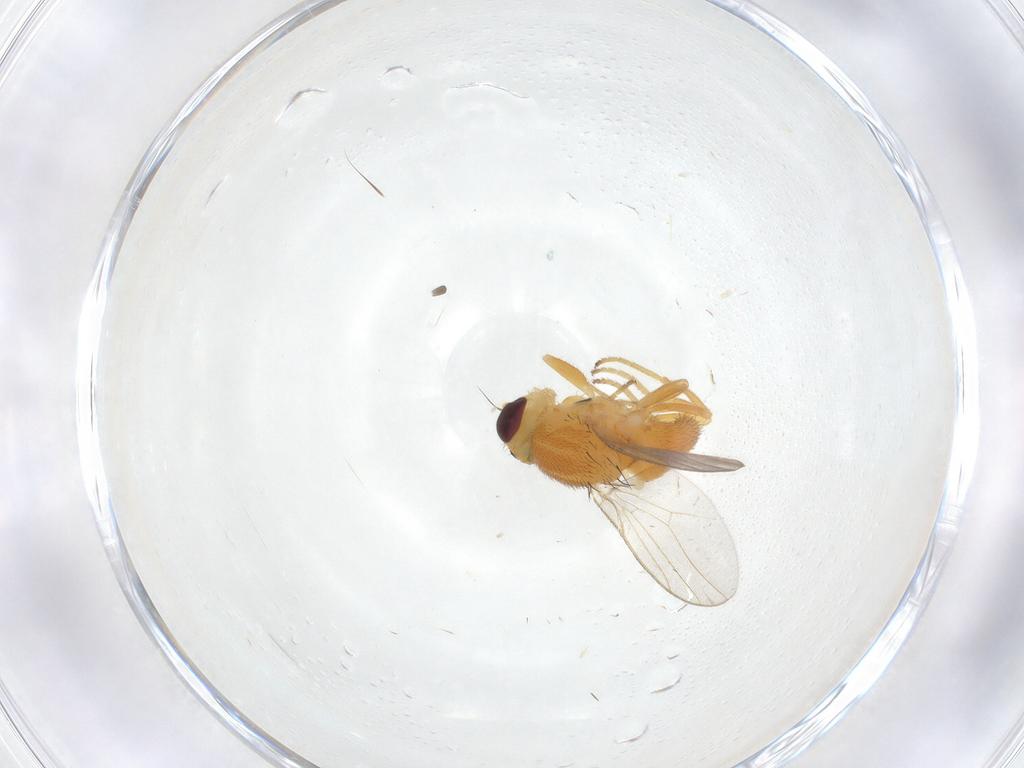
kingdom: Animalia
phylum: Arthropoda
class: Insecta
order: Diptera
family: Chloropidae
